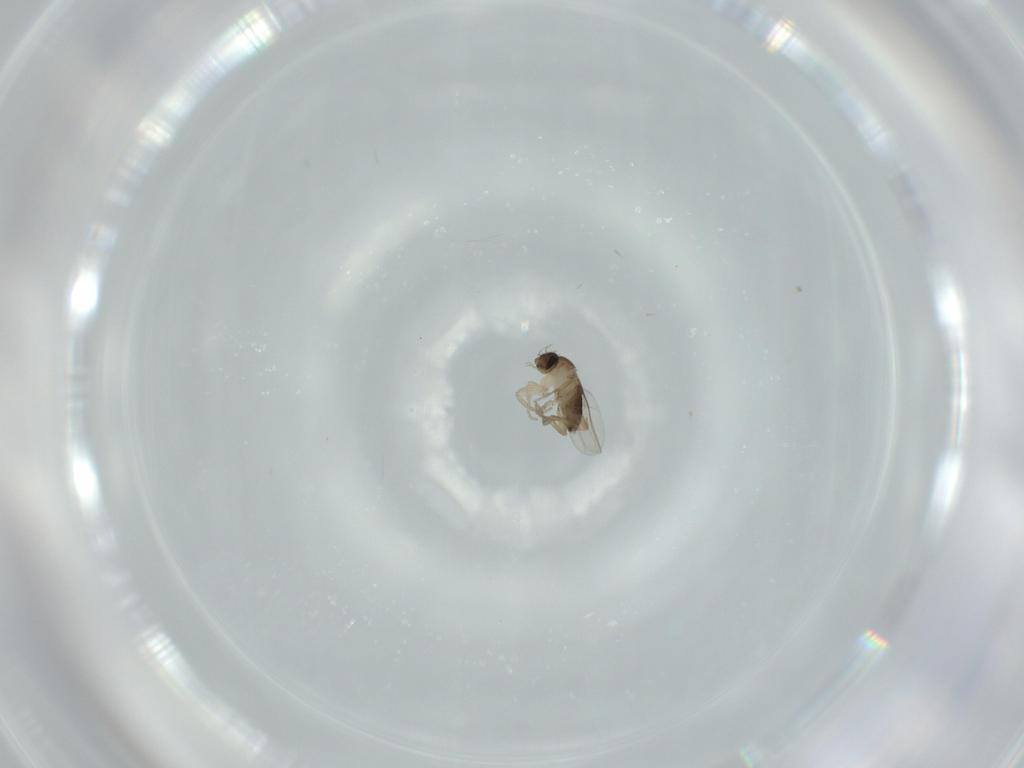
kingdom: Animalia
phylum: Arthropoda
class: Insecta
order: Diptera
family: Phoridae
